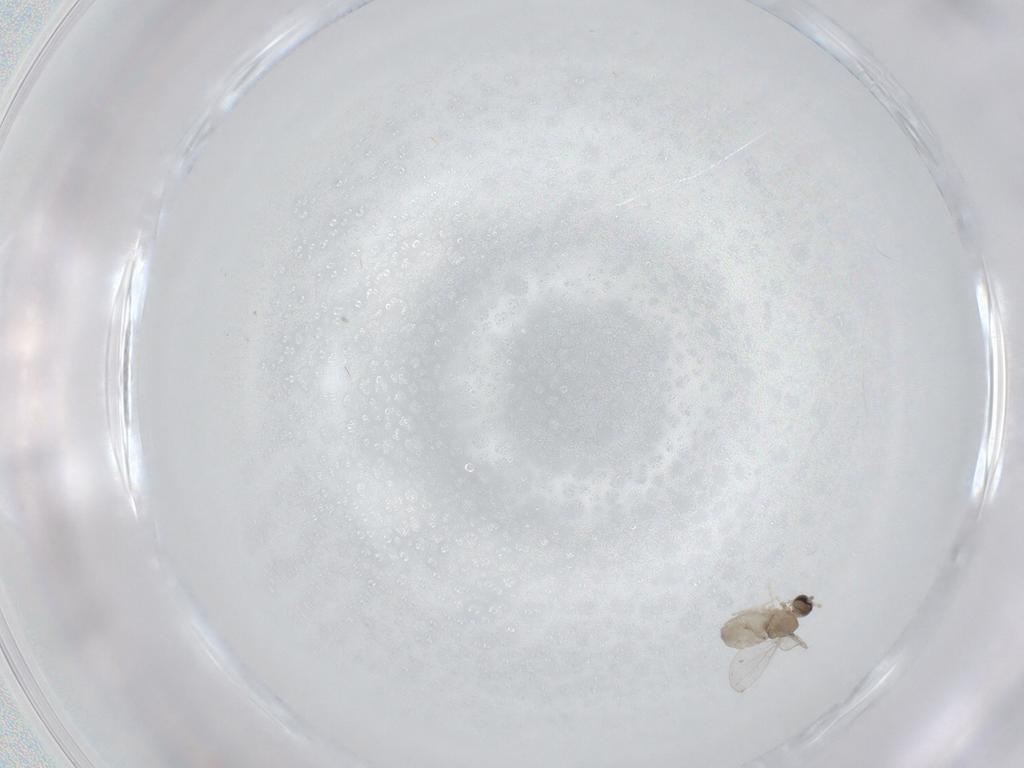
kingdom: Animalia
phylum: Arthropoda
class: Insecta
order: Diptera
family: Cecidomyiidae
